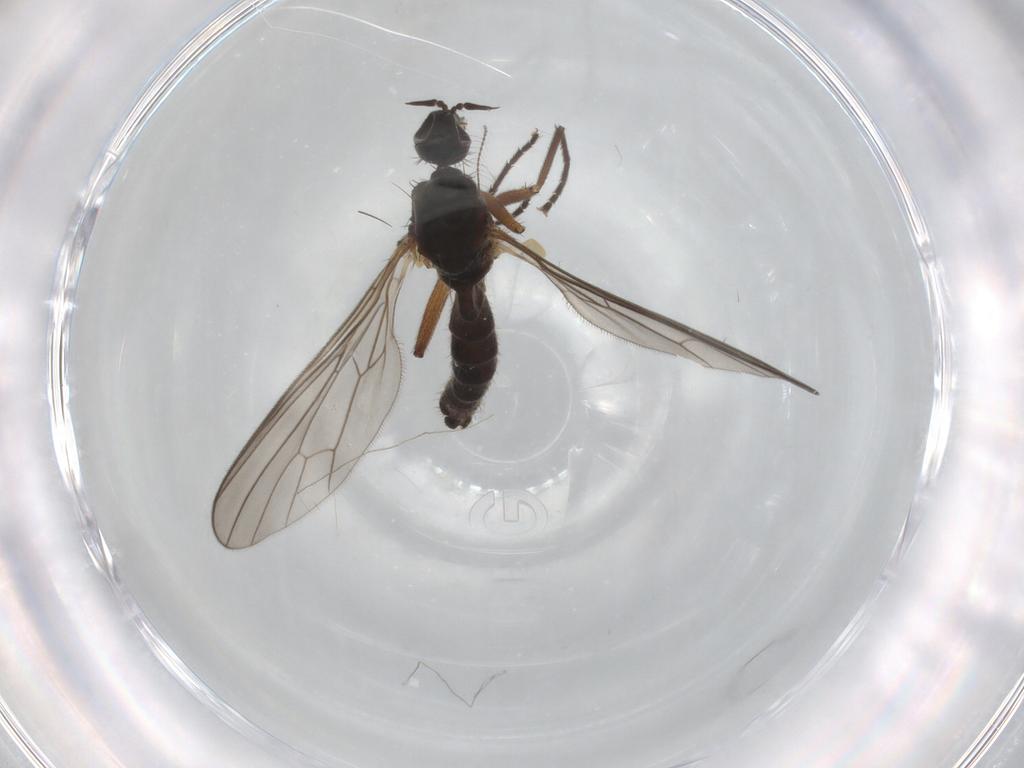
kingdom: Animalia
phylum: Arthropoda
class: Insecta
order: Diptera
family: Empididae
